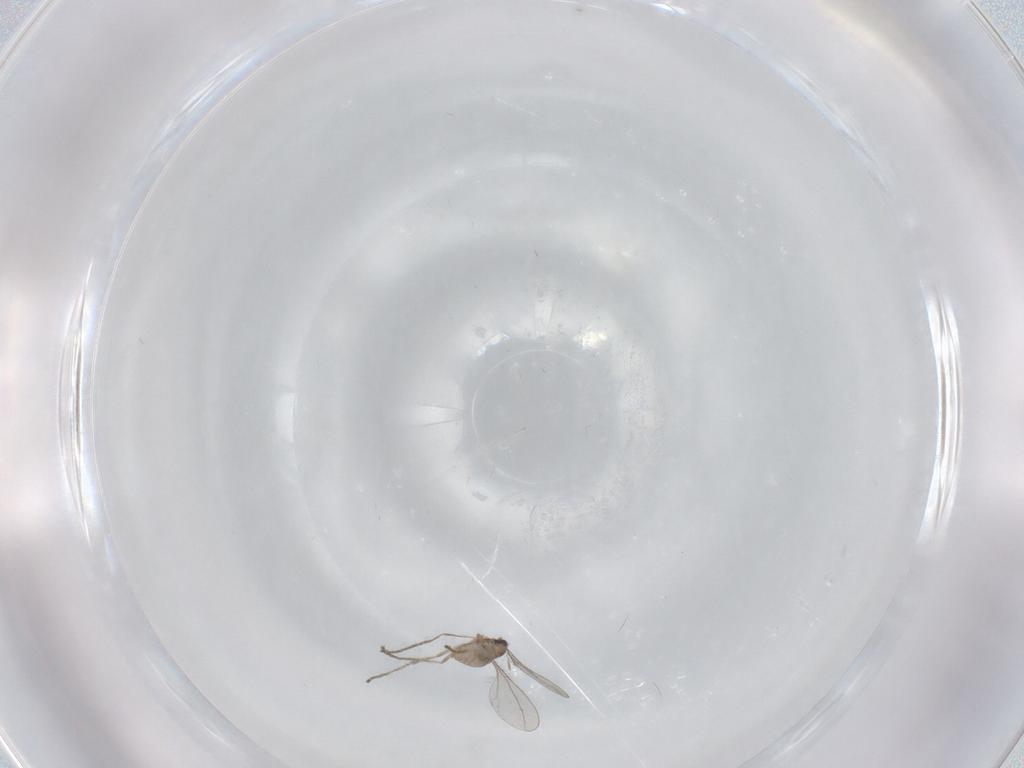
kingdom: Animalia
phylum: Arthropoda
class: Insecta
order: Diptera
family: Cecidomyiidae
